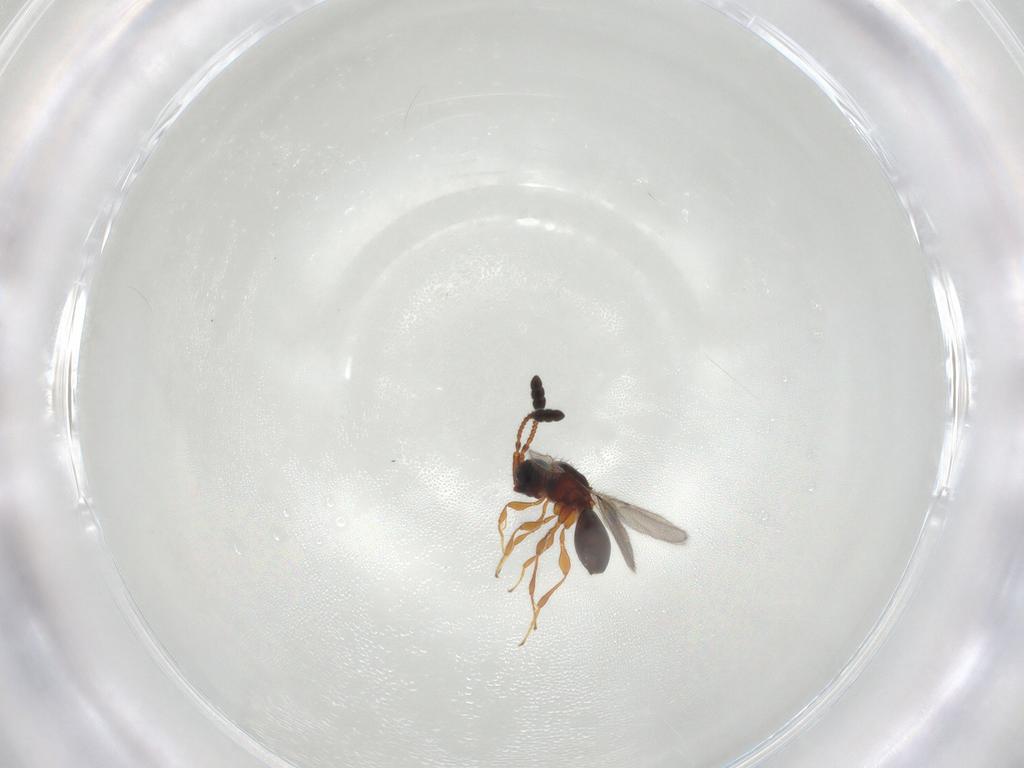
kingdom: Animalia
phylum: Arthropoda
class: Insecta
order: Hymenoptera
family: Diapriidae
